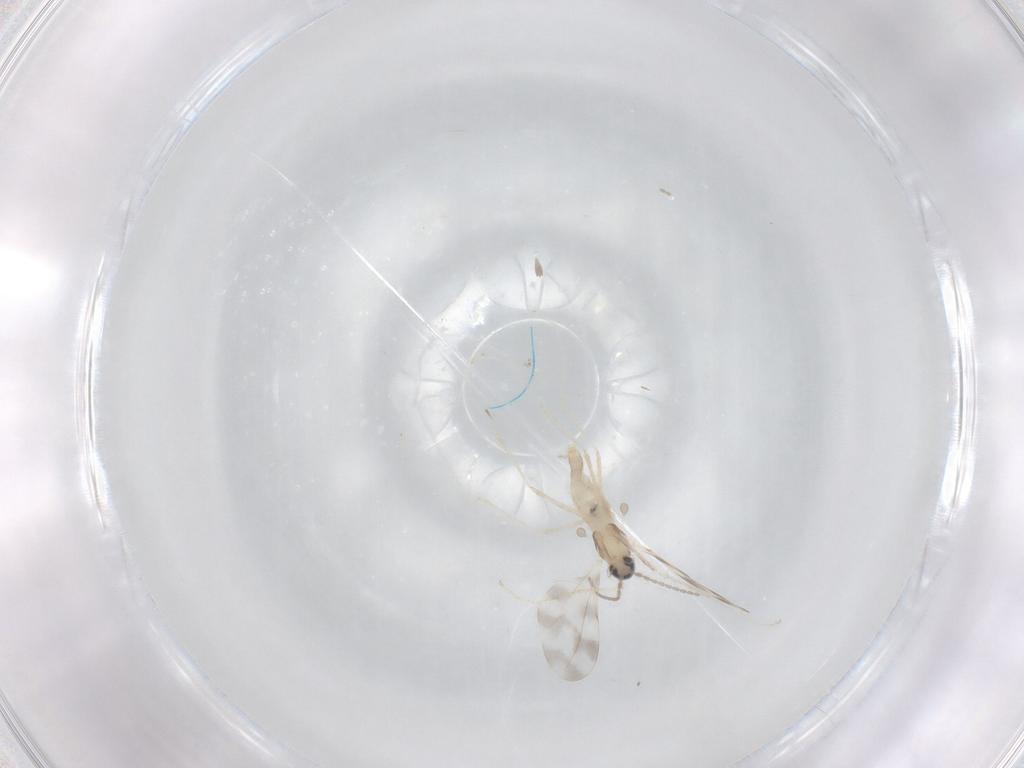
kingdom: Animalia
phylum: Arthropoda
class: Insecta
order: Diptera
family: Cecidomyiidae
